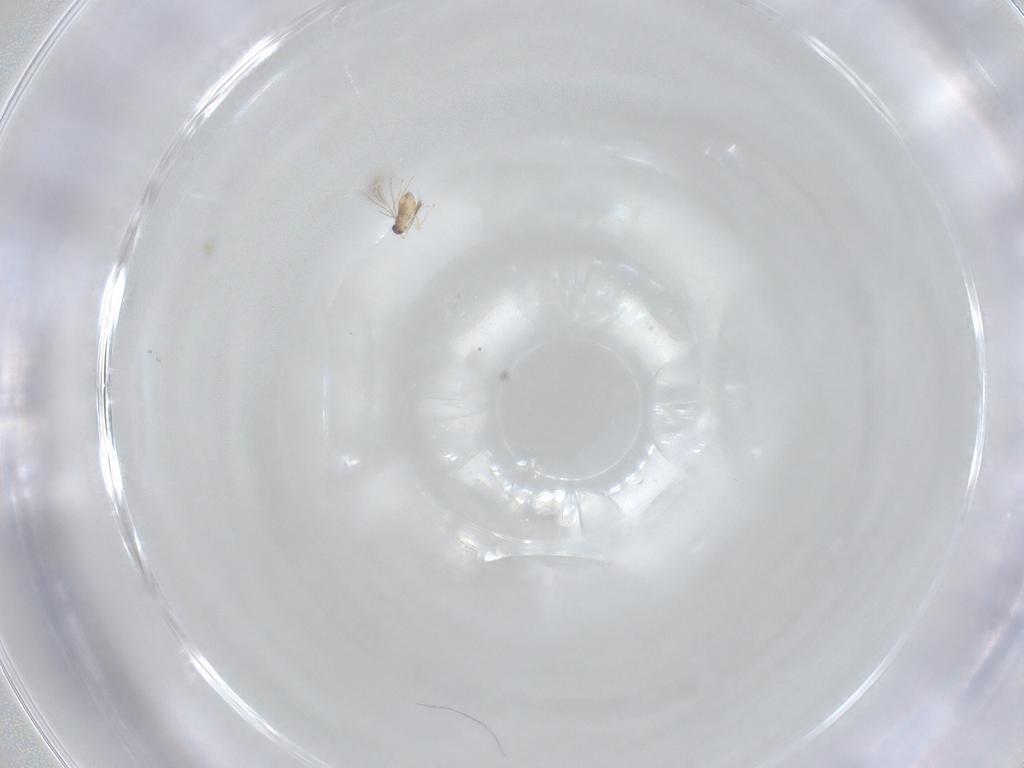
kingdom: Animalia
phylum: Arthropoda
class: Insecta
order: Hymenoptera
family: Mymaridae
